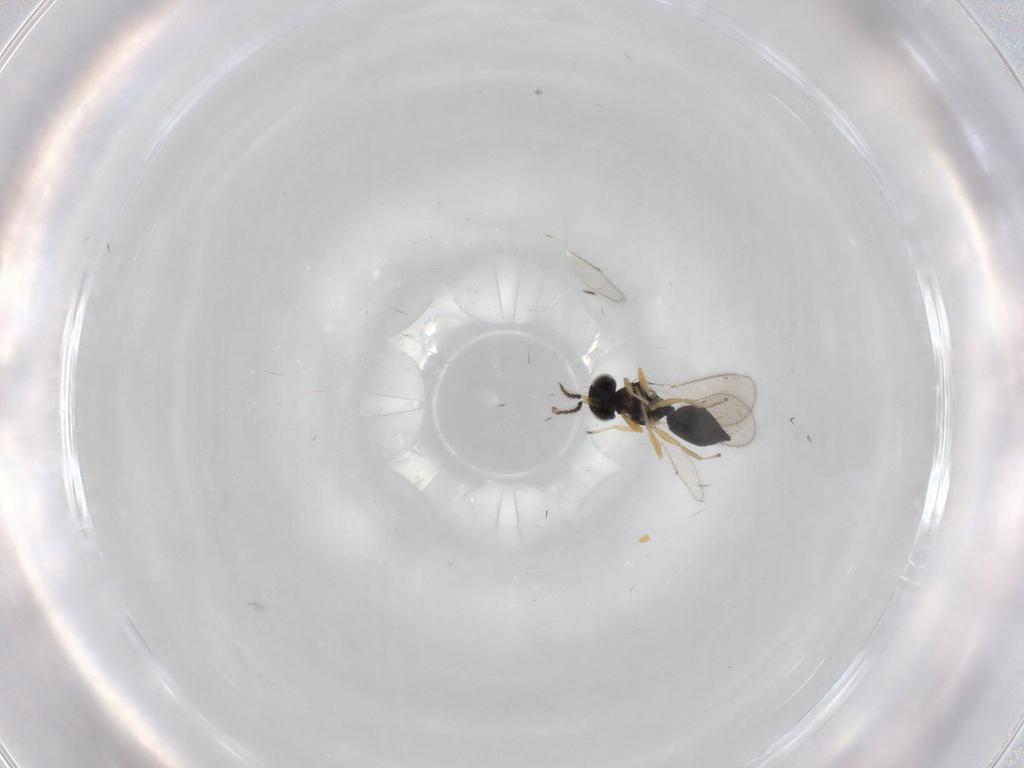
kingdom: Animalia
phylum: Arthropoda
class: Insecta
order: Hymenoptera
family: Eulophidae
